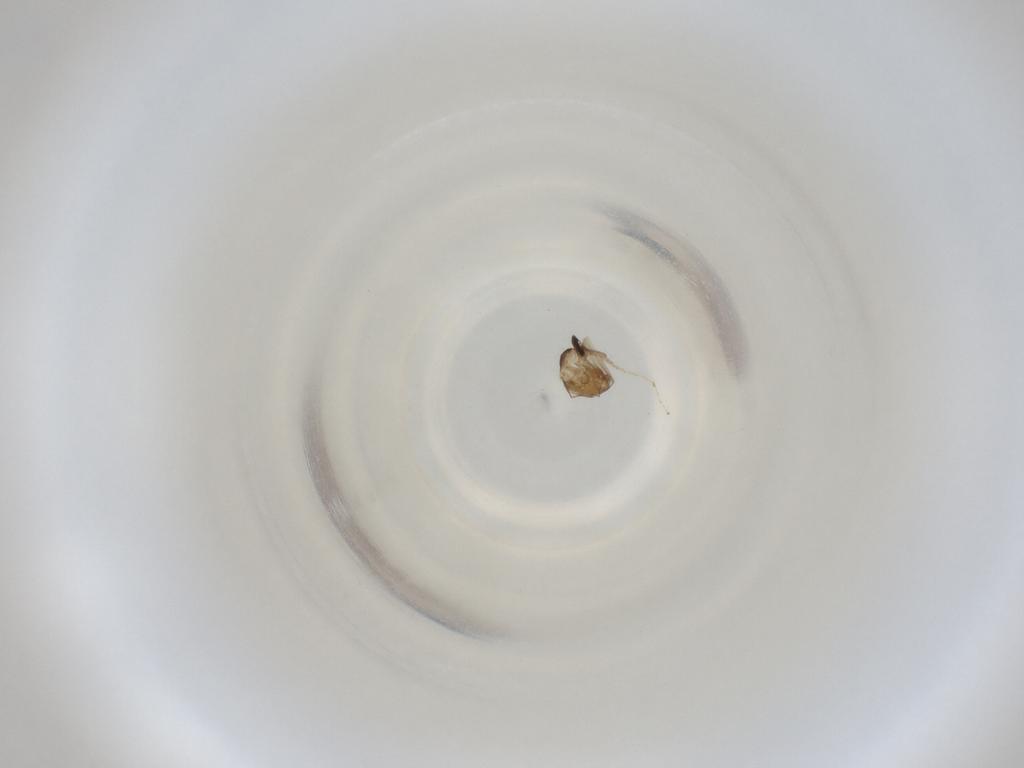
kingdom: Animalia
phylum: Arthropoda
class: Insecta
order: Diptera
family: Cecidomyiidae
